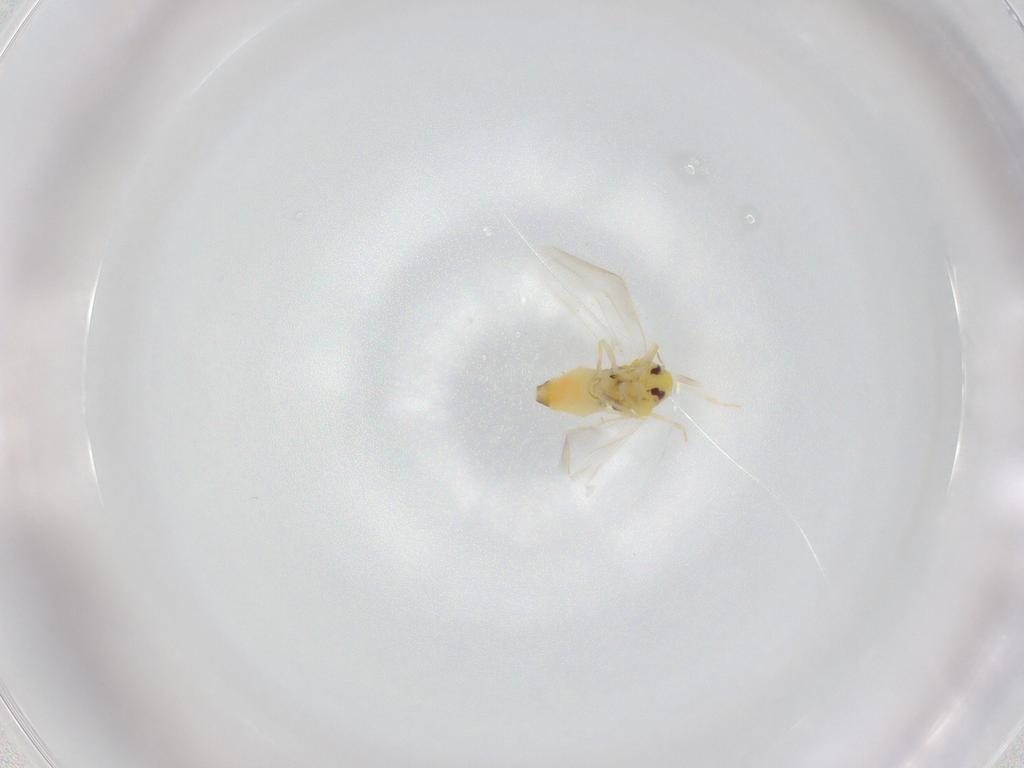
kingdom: Animalia
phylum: Arthropoda
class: Insecta
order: Hemiptera
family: Aleyrodidae
